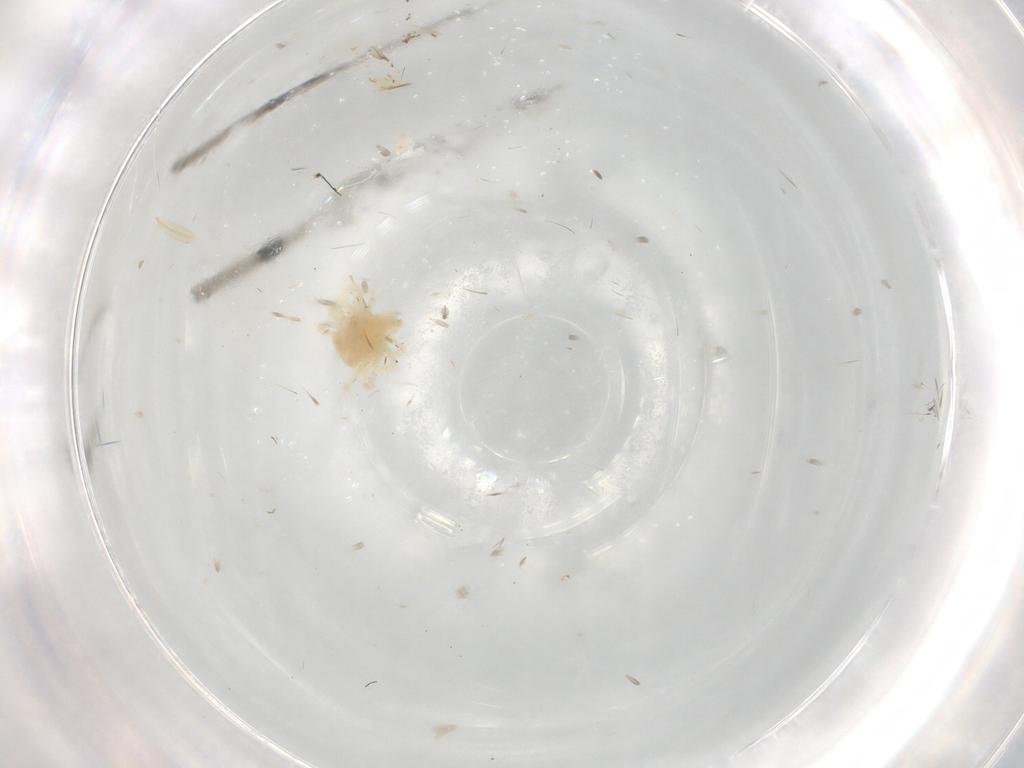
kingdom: Animalia
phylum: Arthropoda
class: Arachnida
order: Trombidiformes
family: Anystidae
